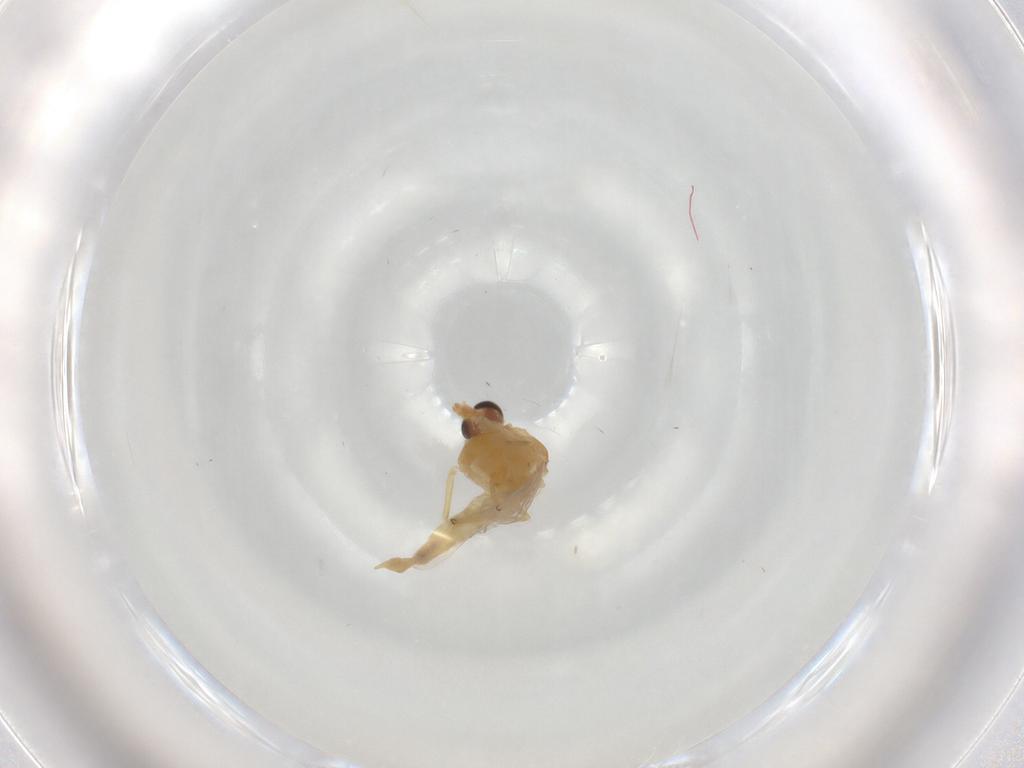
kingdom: Animalia
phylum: Arthropoda
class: Insecta
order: Diptera
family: Chironomidae
